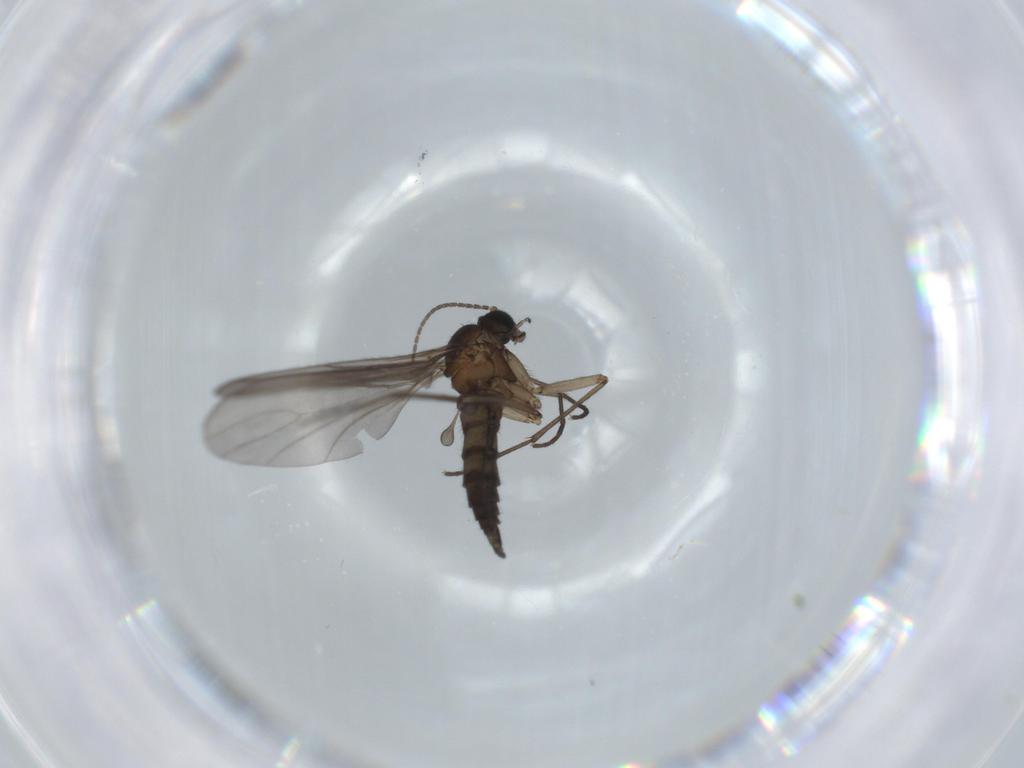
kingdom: Animalia
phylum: Arthropoda
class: Insecta
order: Diptera
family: Sciaridae
